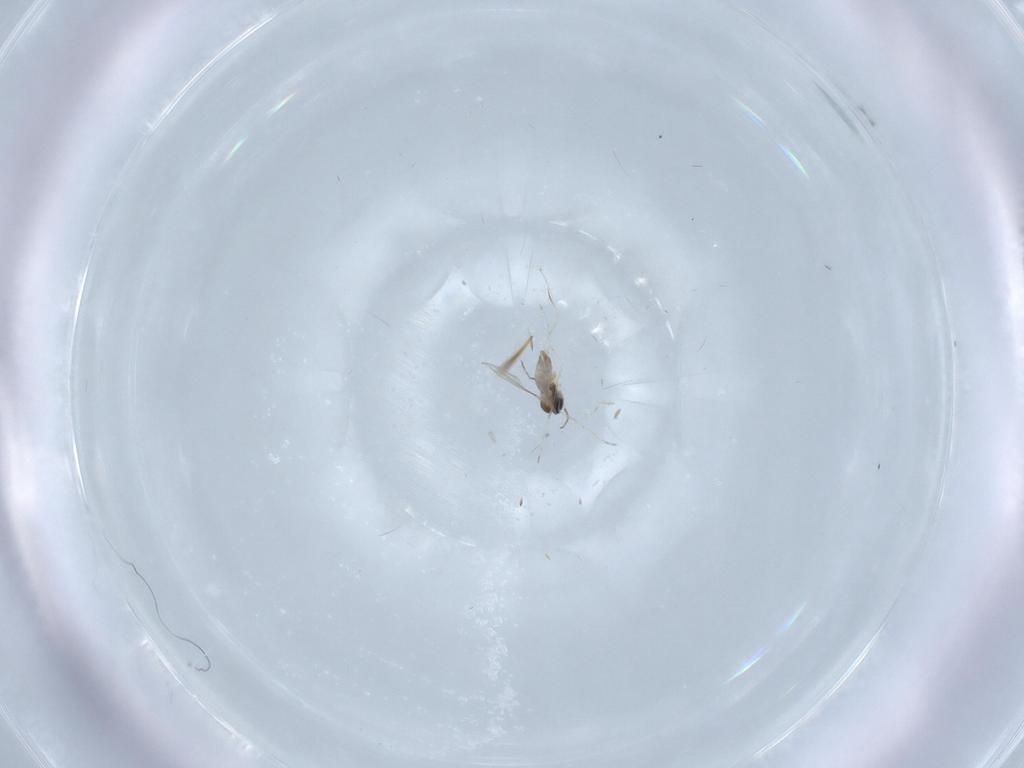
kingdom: Animalia
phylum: Arthropoda
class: Insecta
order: Diptera
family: Cecidomyiidae
